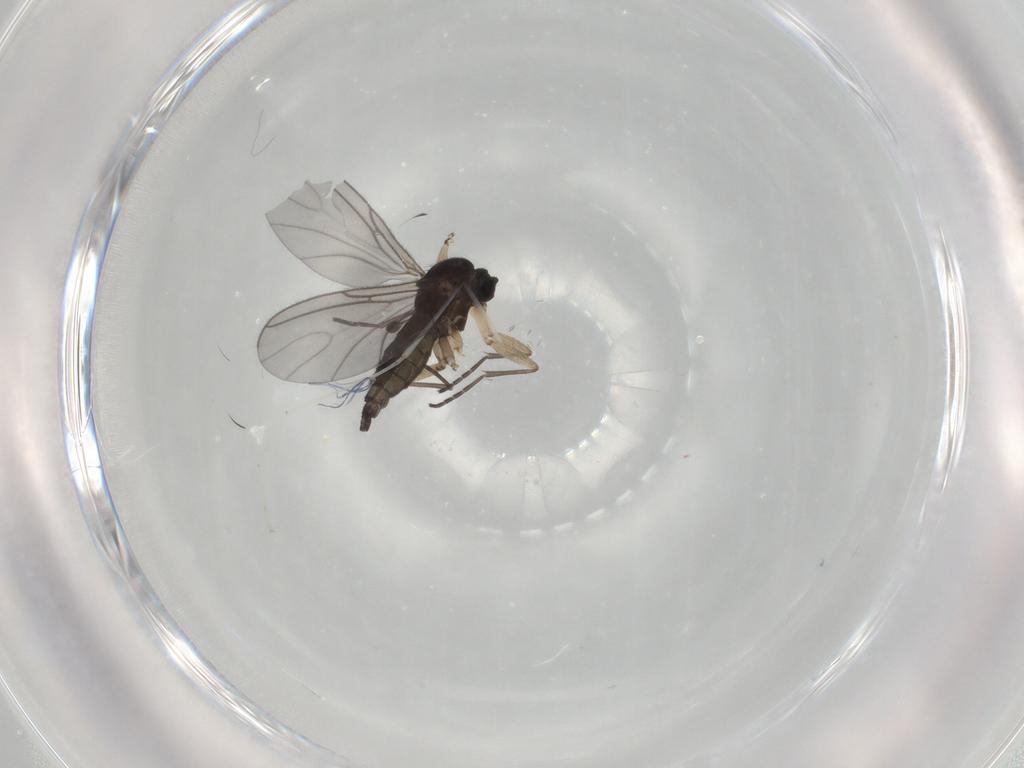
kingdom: Animalia
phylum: Arthropoda
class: Insecta
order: Diptera
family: Sciaridae
